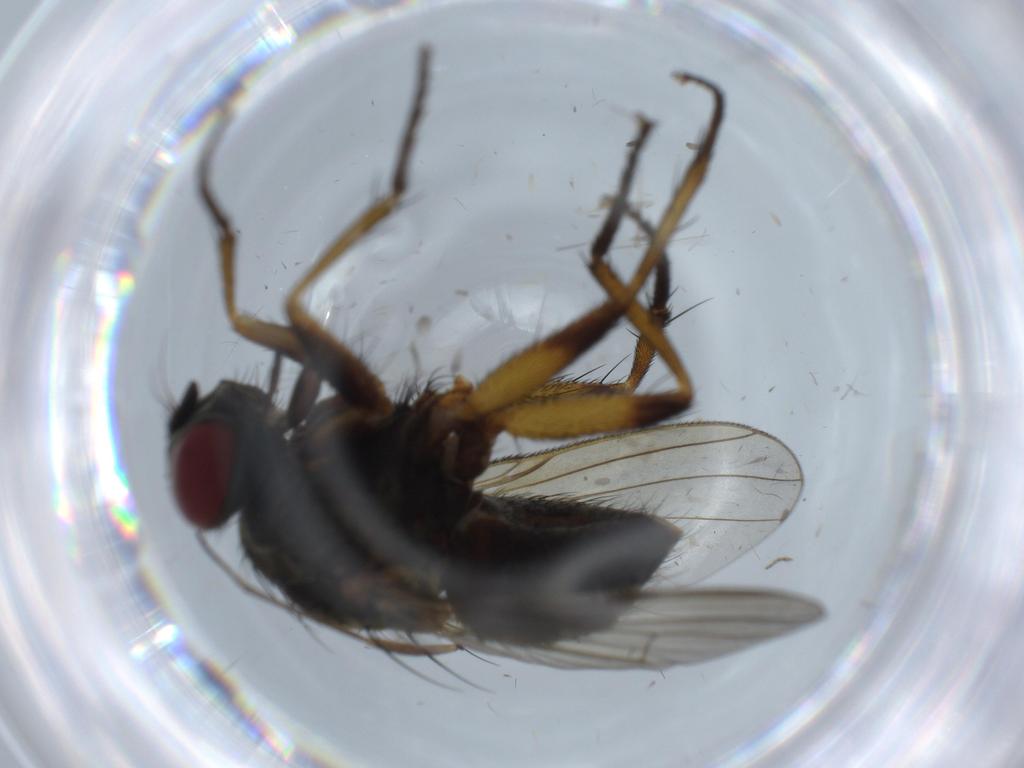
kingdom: Animalia
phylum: Arthropoda
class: Insecta
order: Diptera
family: Muscidae
